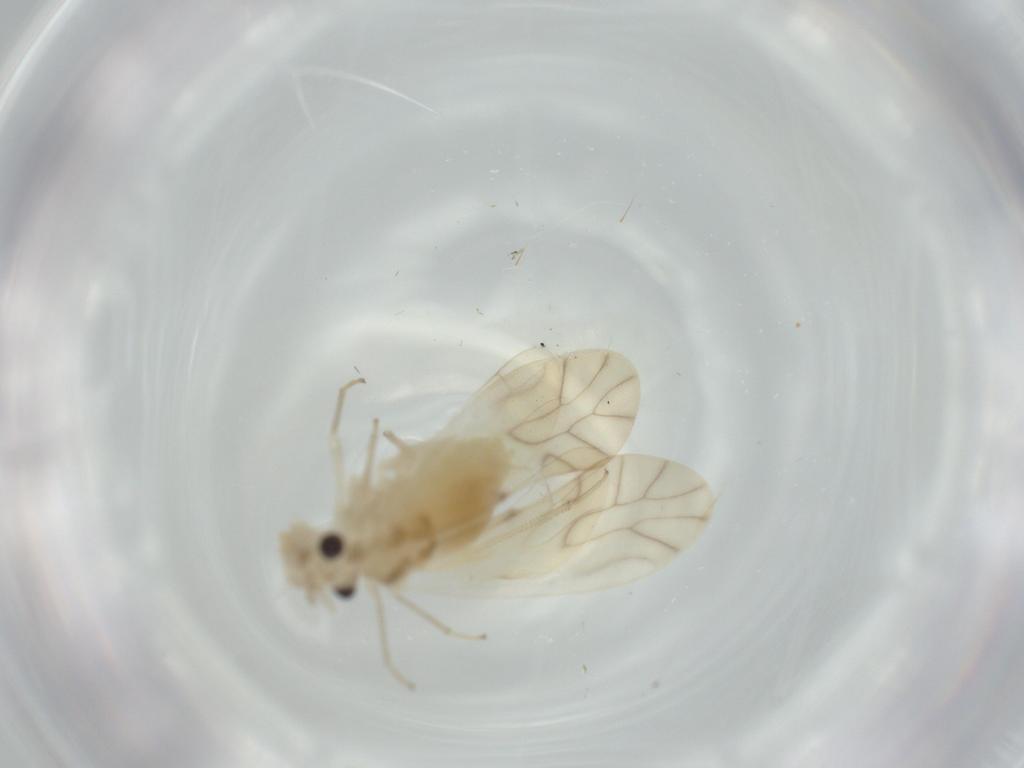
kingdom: Animalia
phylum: Arthropoda
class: Insecta
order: Psocodea
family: Caeciliusidae
